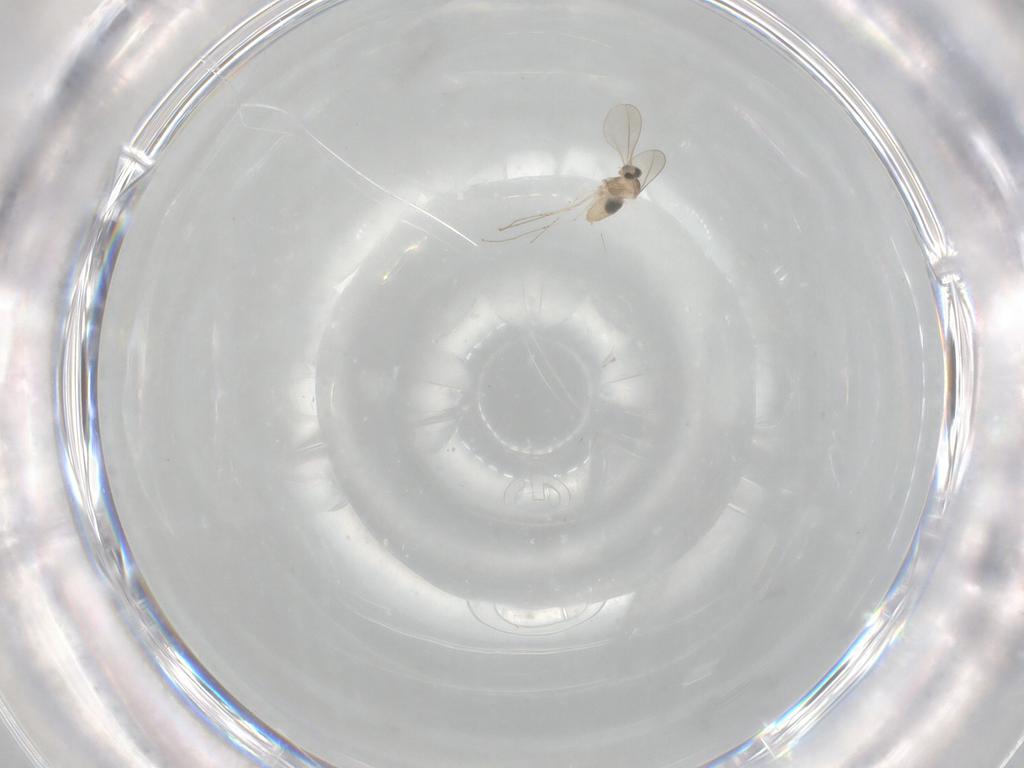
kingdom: Animalia
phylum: Arthropoda
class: Insecta
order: Diptera
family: Cecidomyiidae
